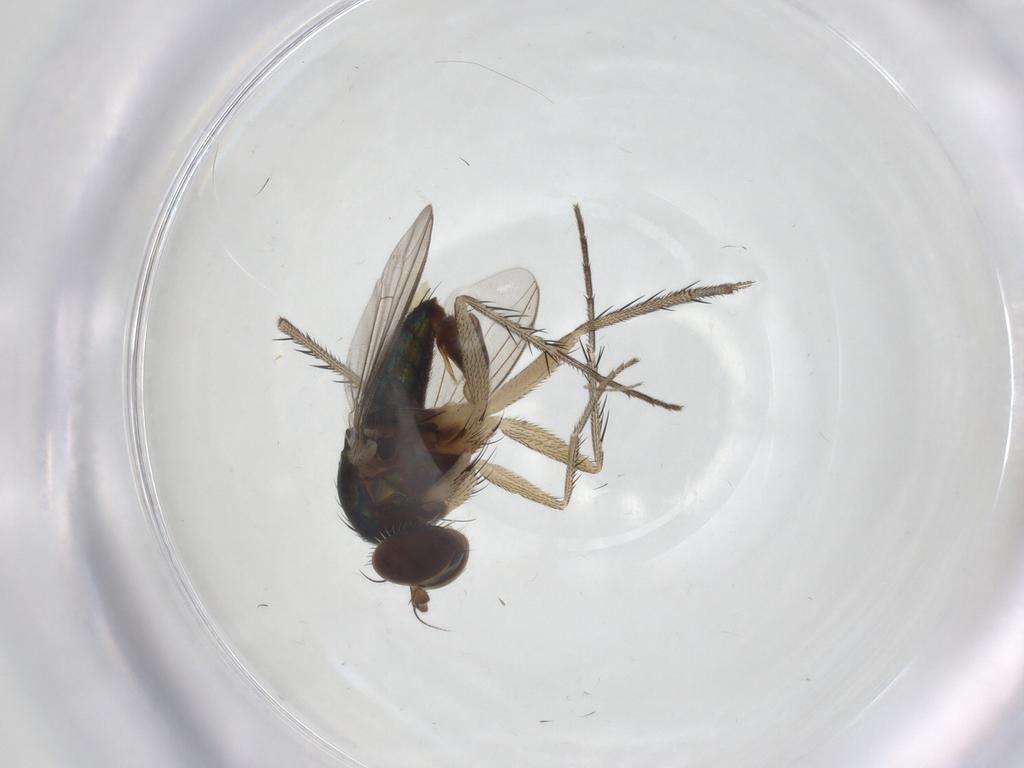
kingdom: Animalia
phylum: Arthropoda
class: Insecta
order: Diptera
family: Dolichopodidae
